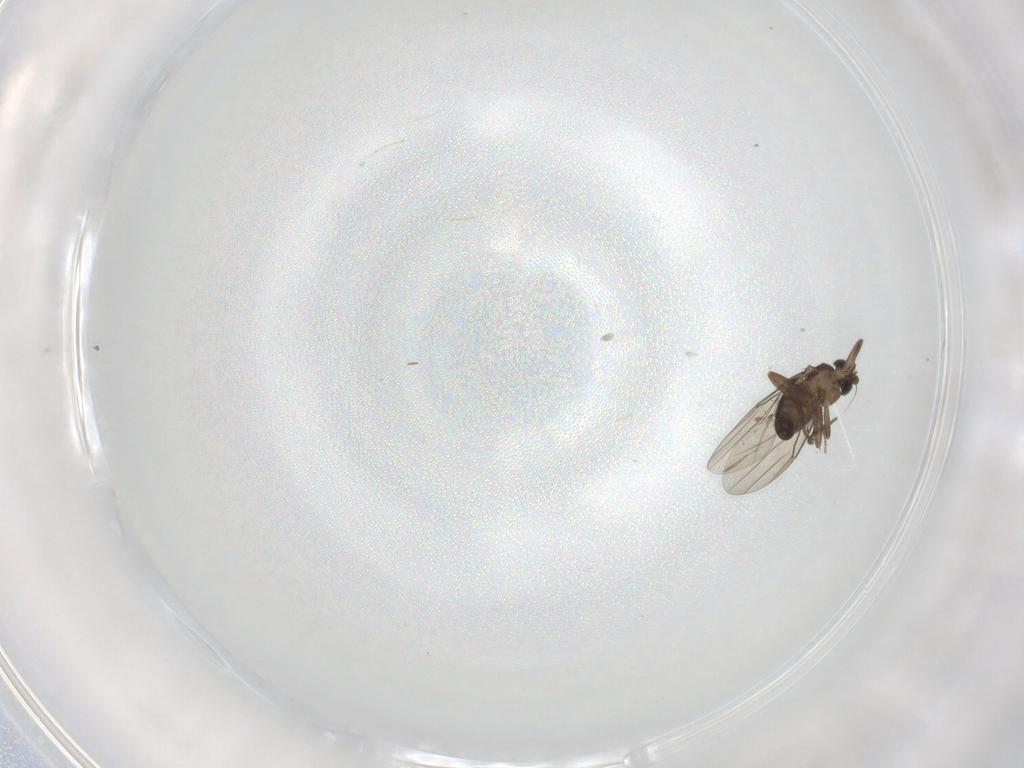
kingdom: Animalia
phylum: Arthropoda
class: Insecta
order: Diptera
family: Phoridae
